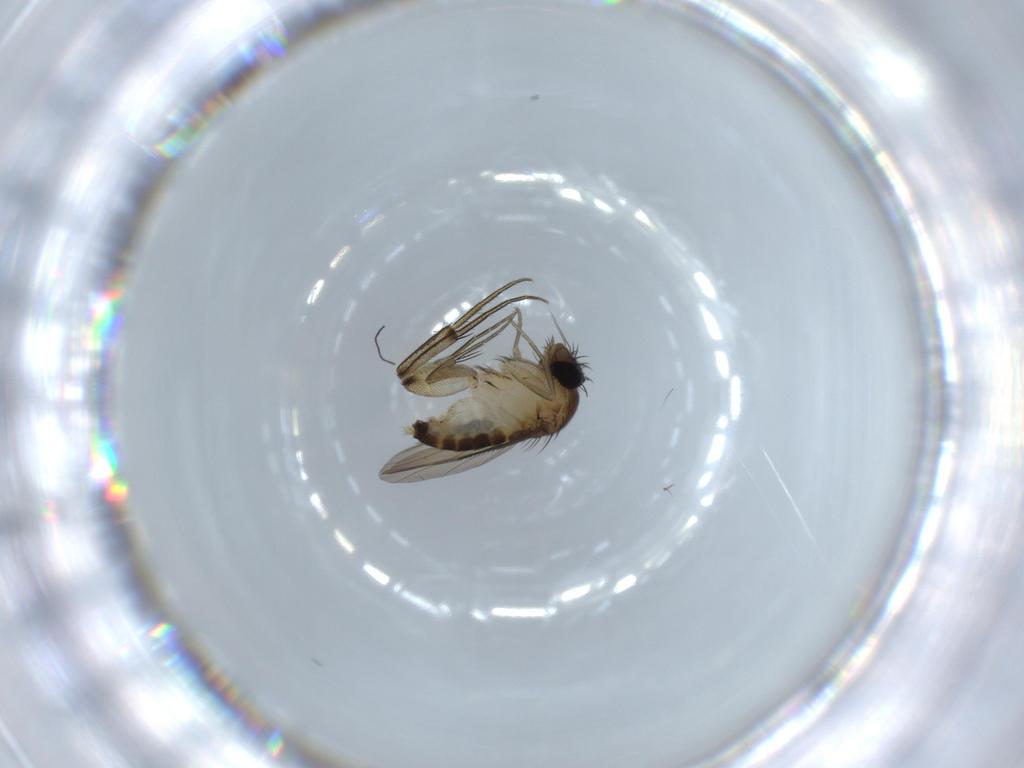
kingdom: Animalia
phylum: Arthropoda
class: Insecta
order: Diptera
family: Phoridae
